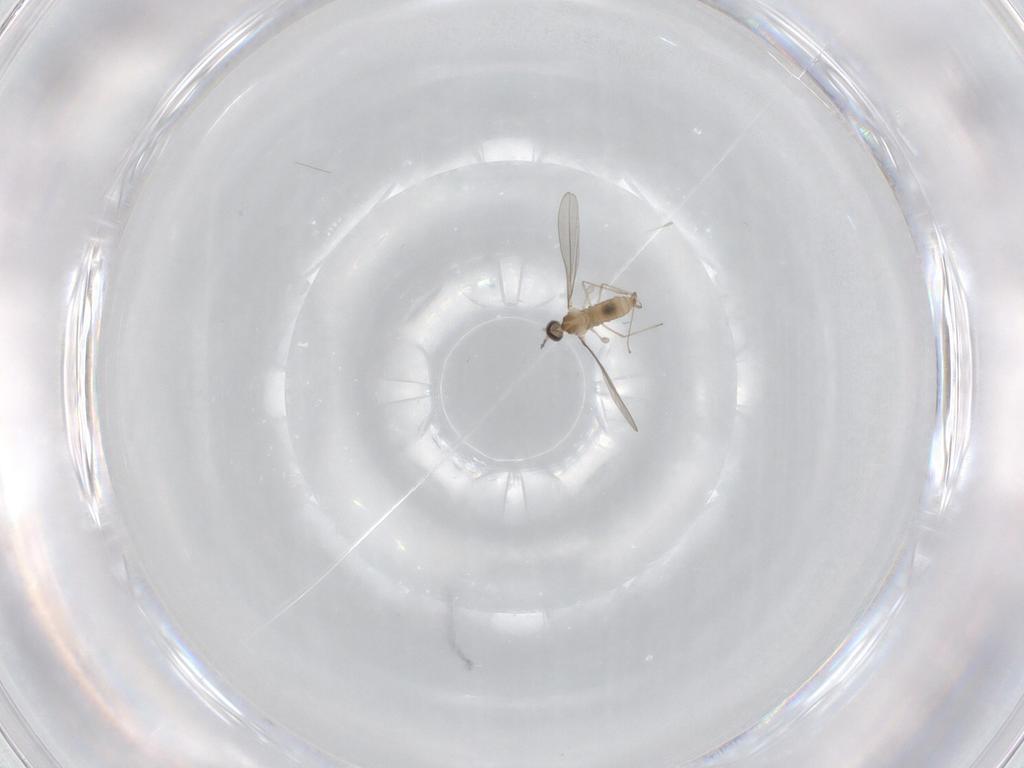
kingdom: Animalia
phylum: Arthropoda
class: Insecta
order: Diptera
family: Cecidomyiidae
